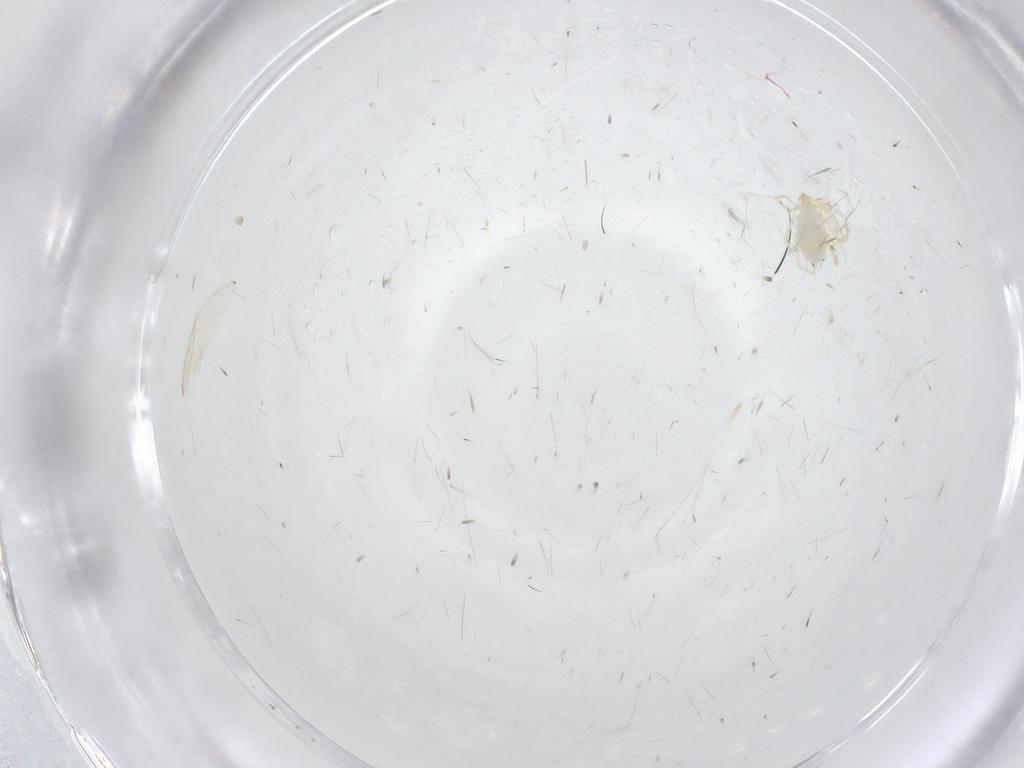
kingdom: Animalia
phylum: Arthropoda
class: Arachnida
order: Trombidiformes
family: Erythraeidae
